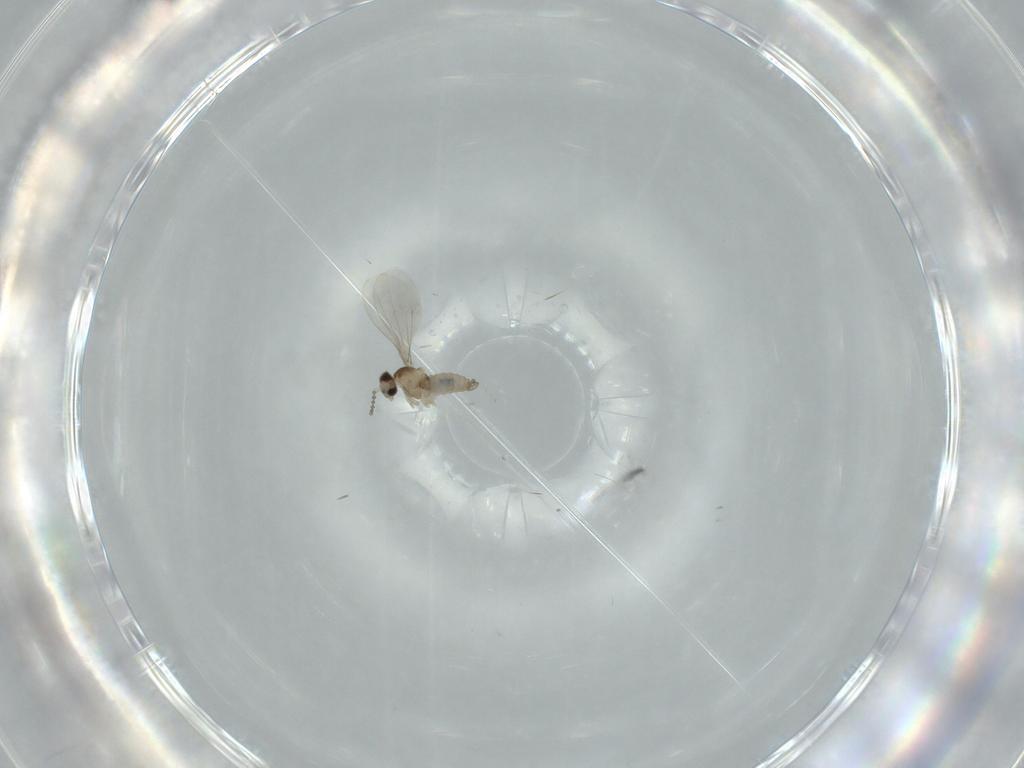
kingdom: Animalia
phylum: Arthropoda
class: Insecta
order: Diptera
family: Cecidomyiidae
